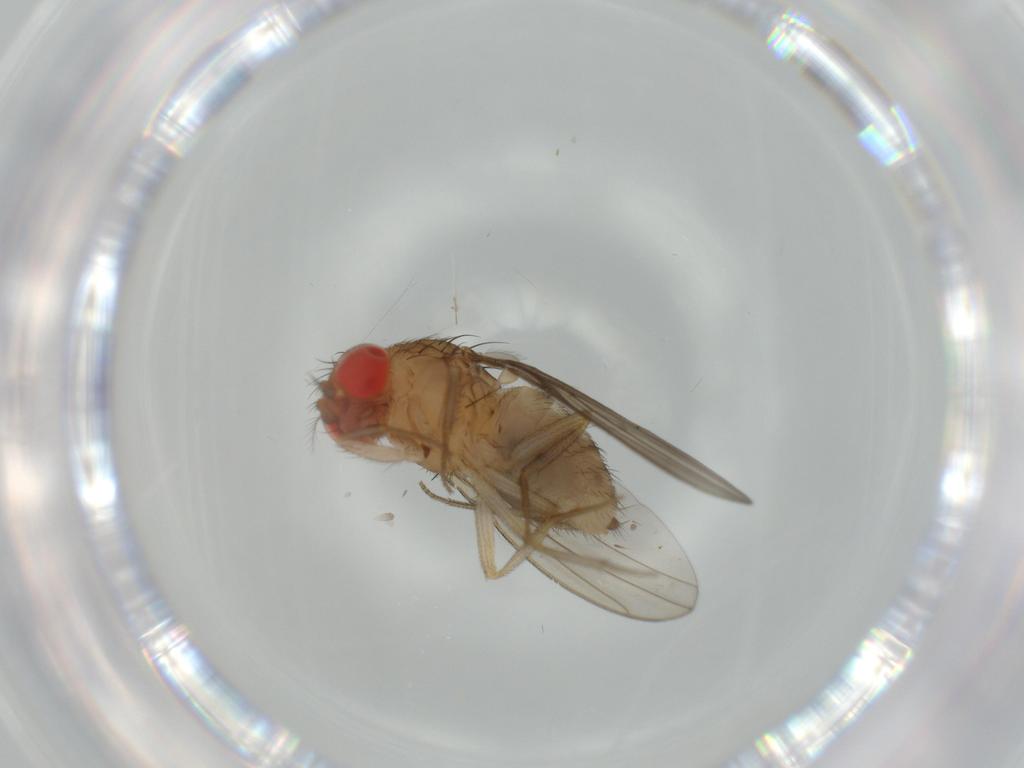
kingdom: Animalia
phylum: Arthropoda
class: Insecta
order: Diptera
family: Drosophilidae
